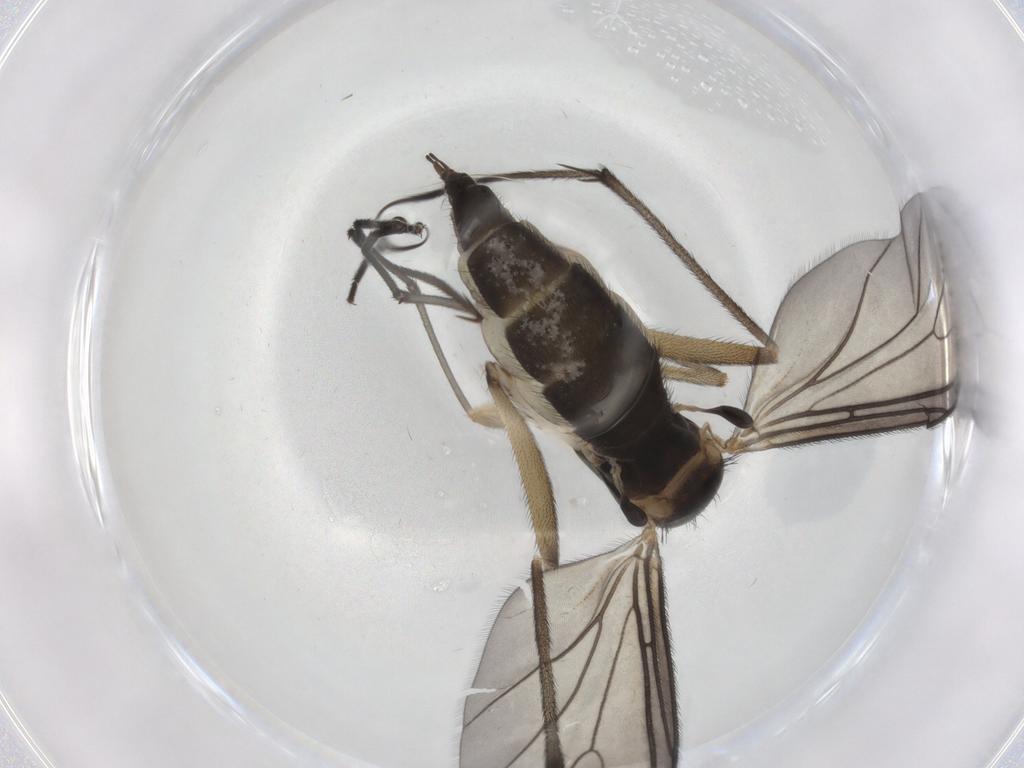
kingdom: Animalia
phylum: Arthropoda
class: Insecta
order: Diptera
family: Sciaridae
